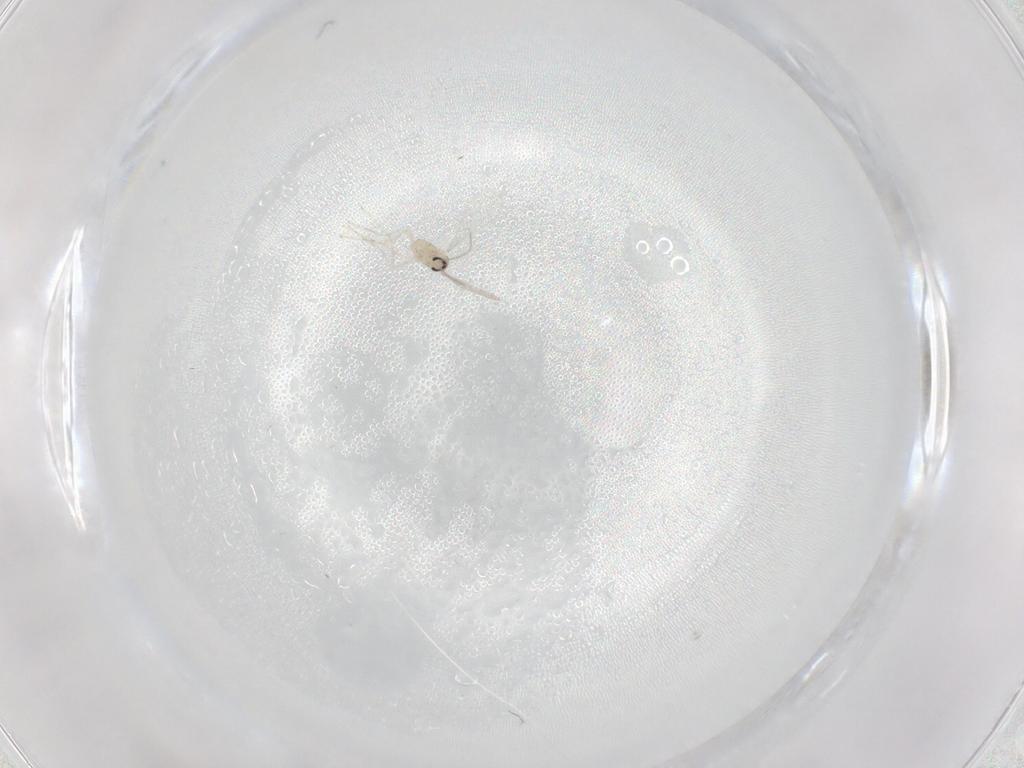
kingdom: Animalia
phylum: Arthropoda
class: Insecta
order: Diptera
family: Cecidomyiidae
